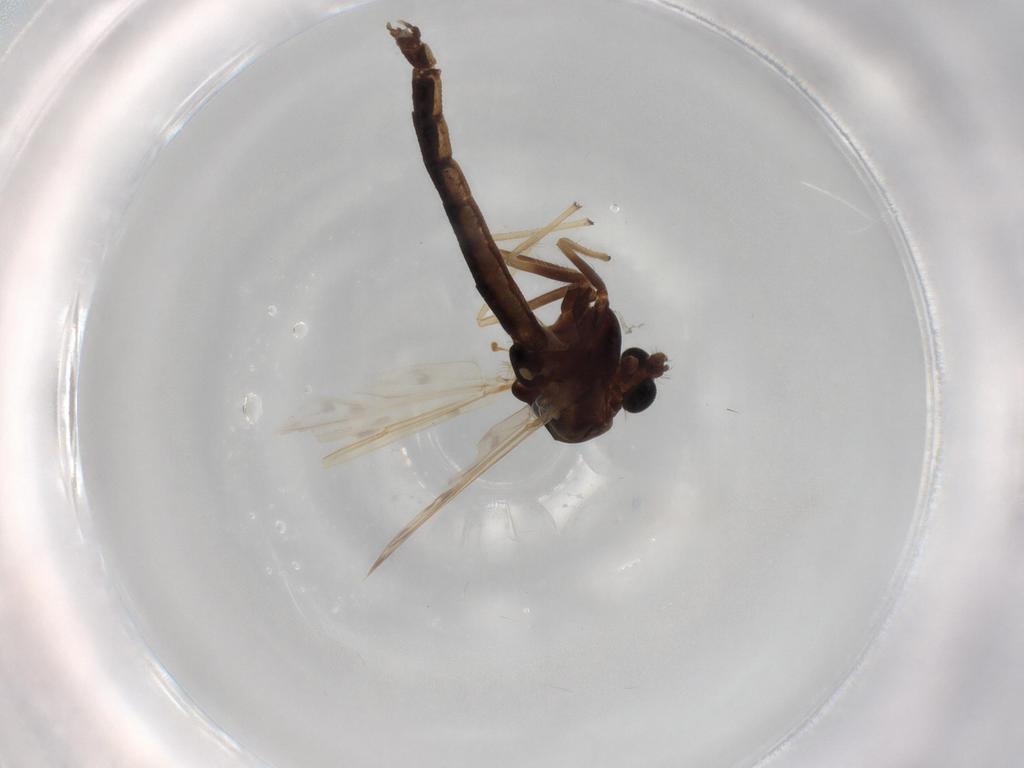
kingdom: Animalia
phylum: Arthropoda
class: Insecta
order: Diptera
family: Chironomidae
